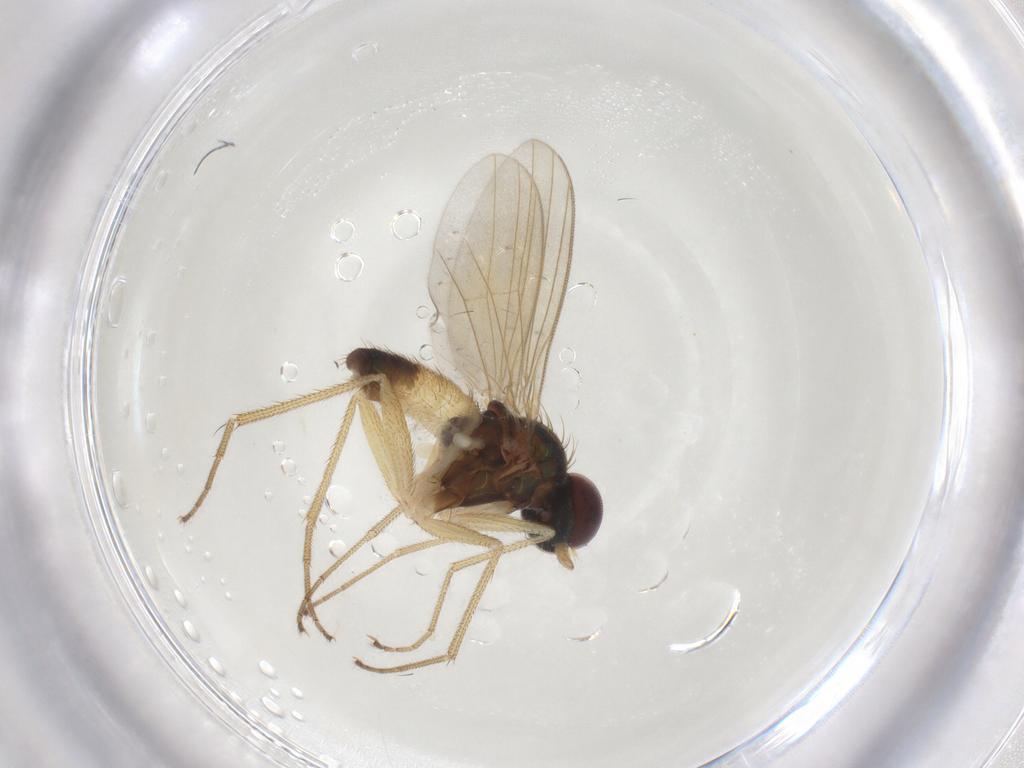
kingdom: Animalia
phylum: Arthropoda
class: Insecta
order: Diptera
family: Dolichopodidae
